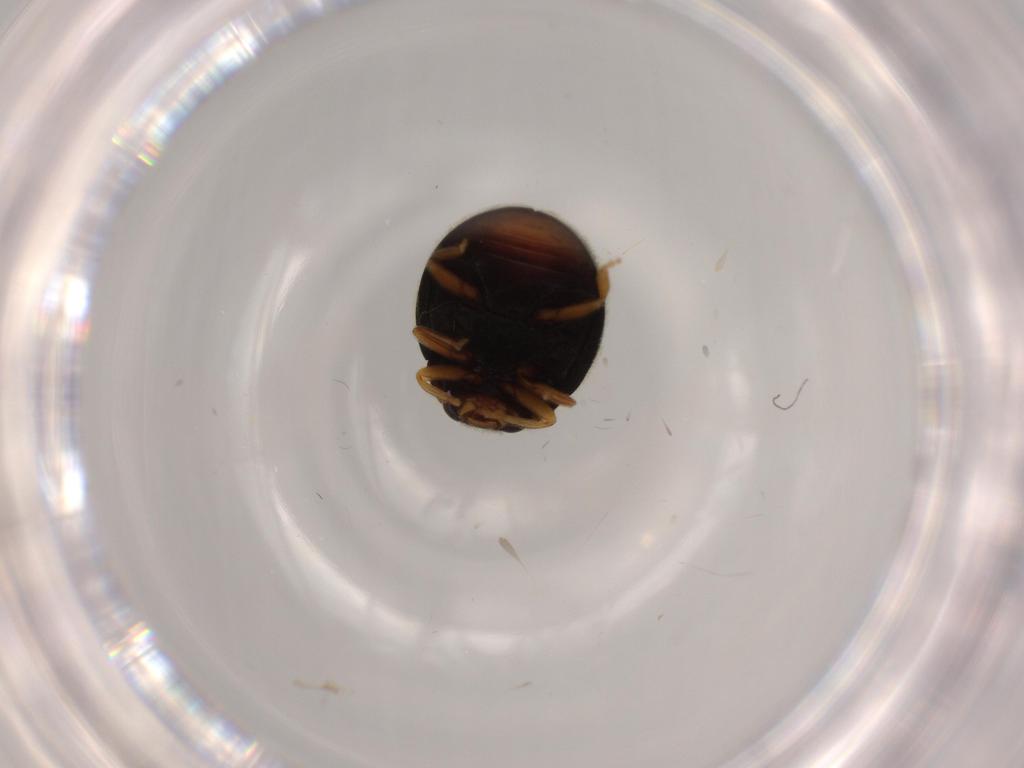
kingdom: Animalia
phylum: Arthropoda
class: Insecta
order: Coleoptera
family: Coccinellidae
